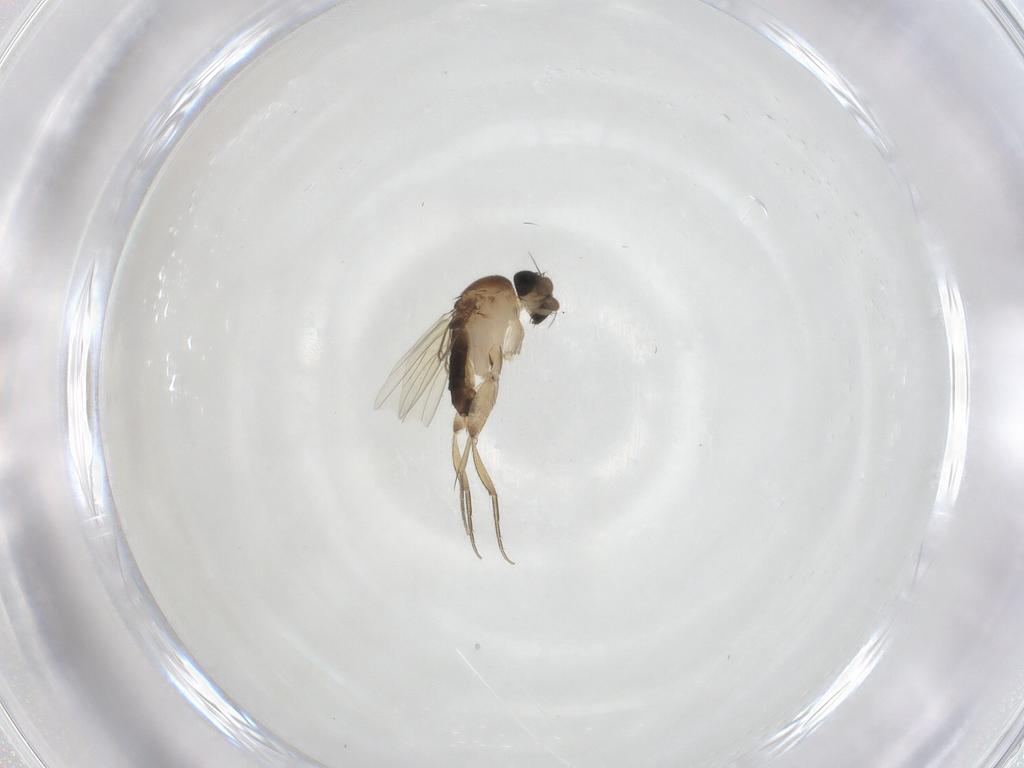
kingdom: Animalia
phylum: Arthropoda
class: Insecta
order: Diptera
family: Phoridae
